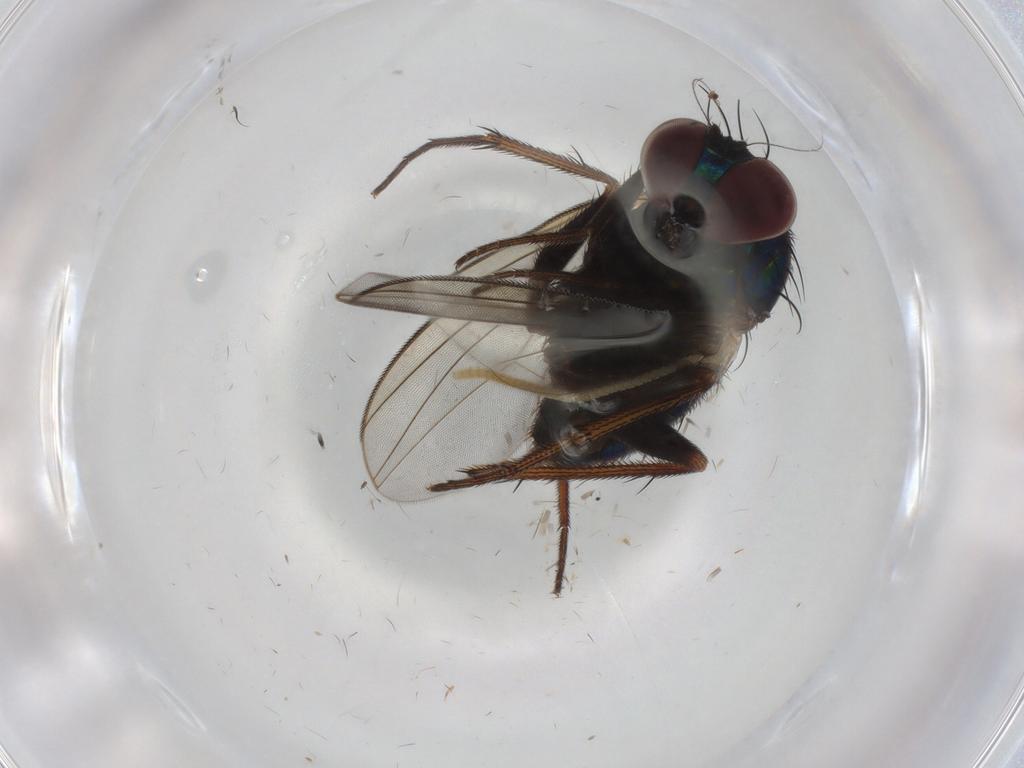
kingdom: Animalia
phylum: Arthropoda
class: Insecta
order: Diptera
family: Dolichopodidae
